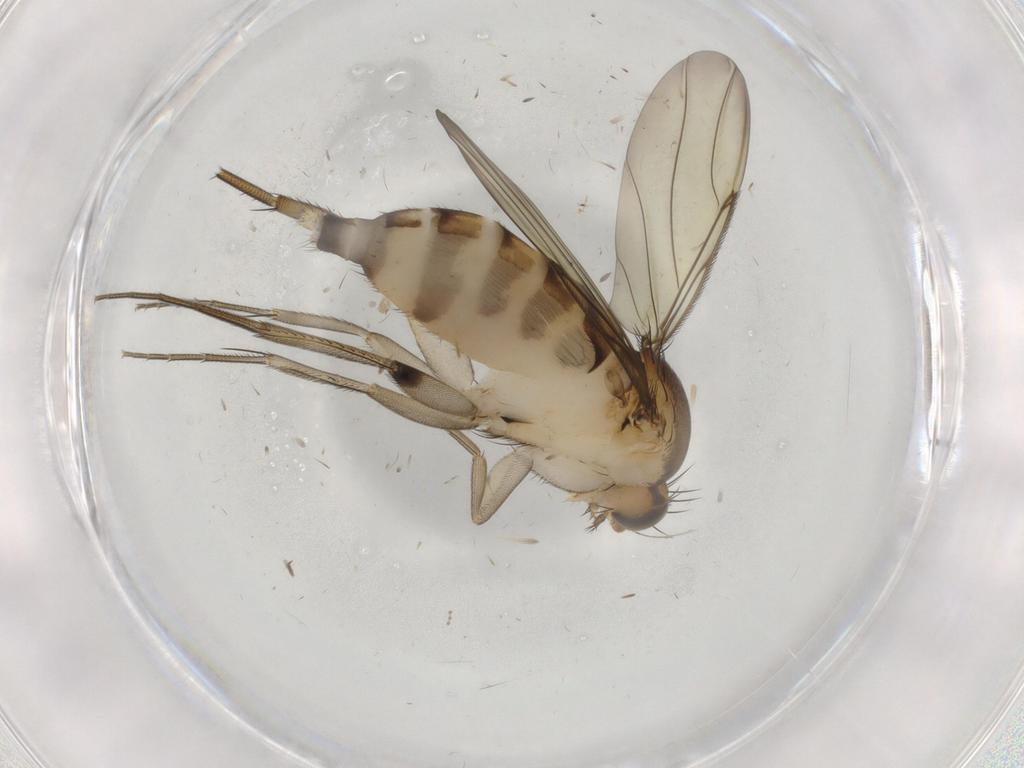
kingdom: Animalia
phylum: Arthropoda
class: Insecta
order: Diptera
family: Phoridae
